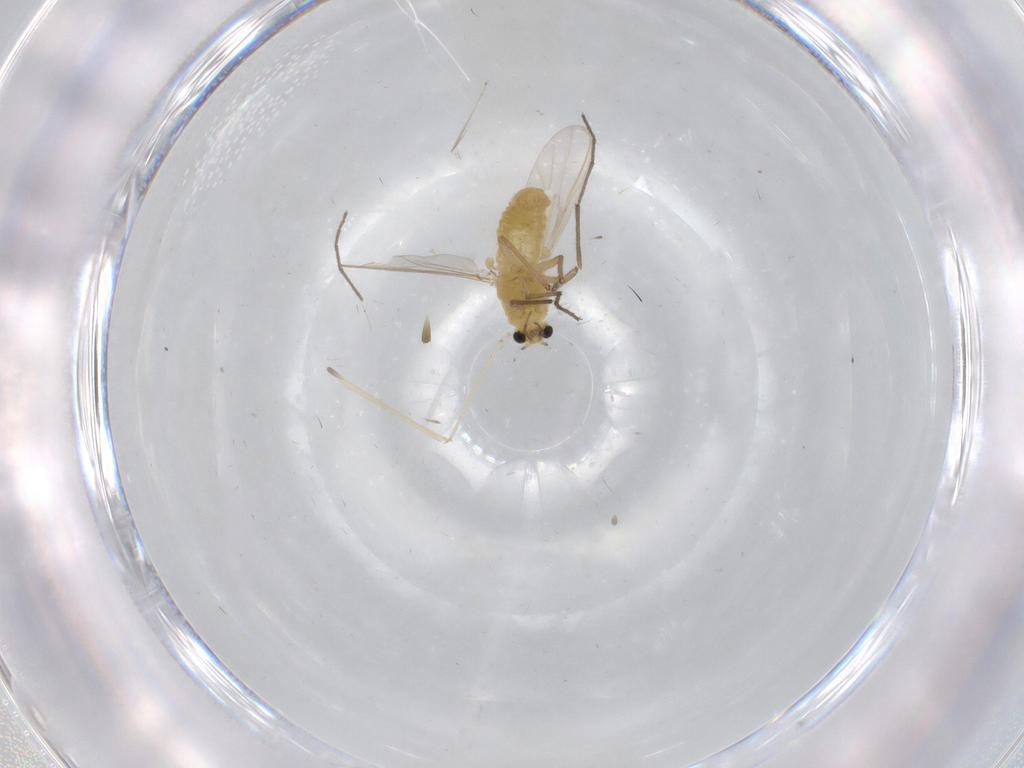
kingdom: Animalia
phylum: Arthropoda
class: Insecta
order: Diptera
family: Chironomidae
